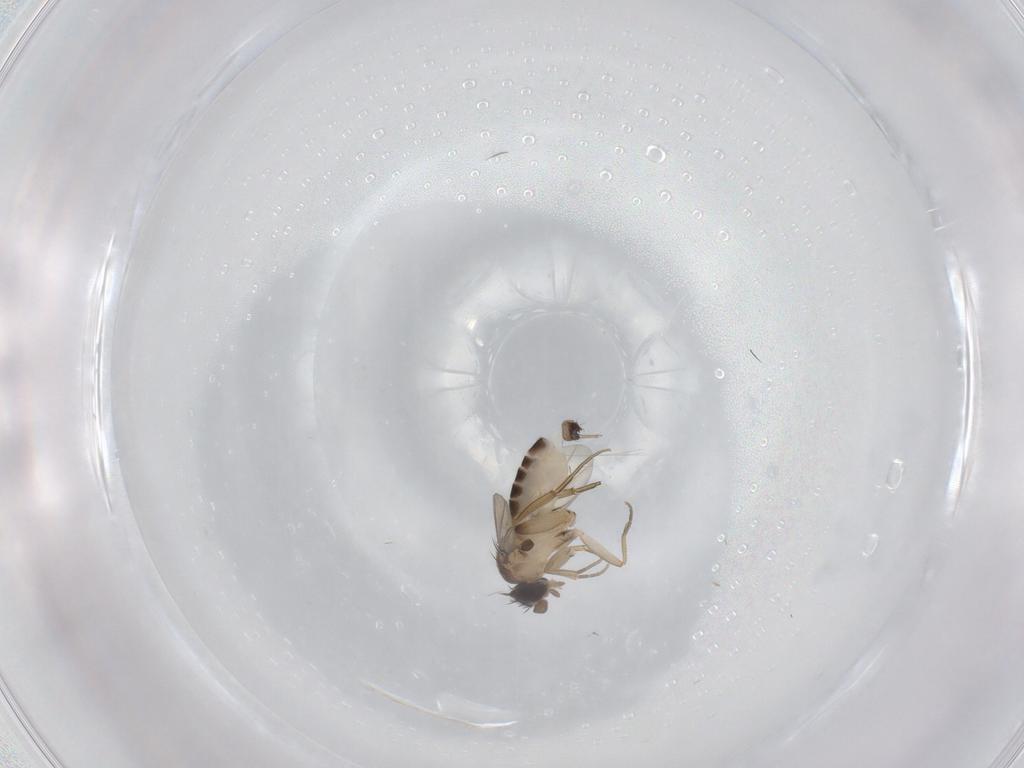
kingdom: Animalia
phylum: Arthropoda
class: Insecta
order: Diptera
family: Phoridae
